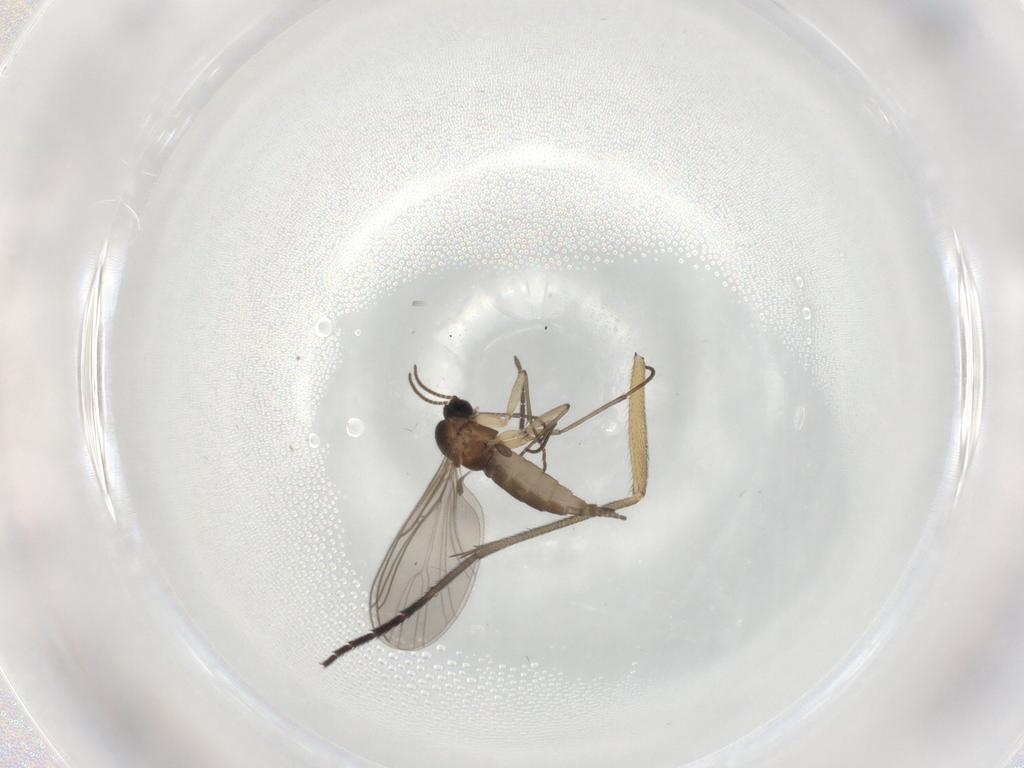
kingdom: Animalia
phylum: Arthropoda
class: Insecta
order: Diptera
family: Sciaridae
